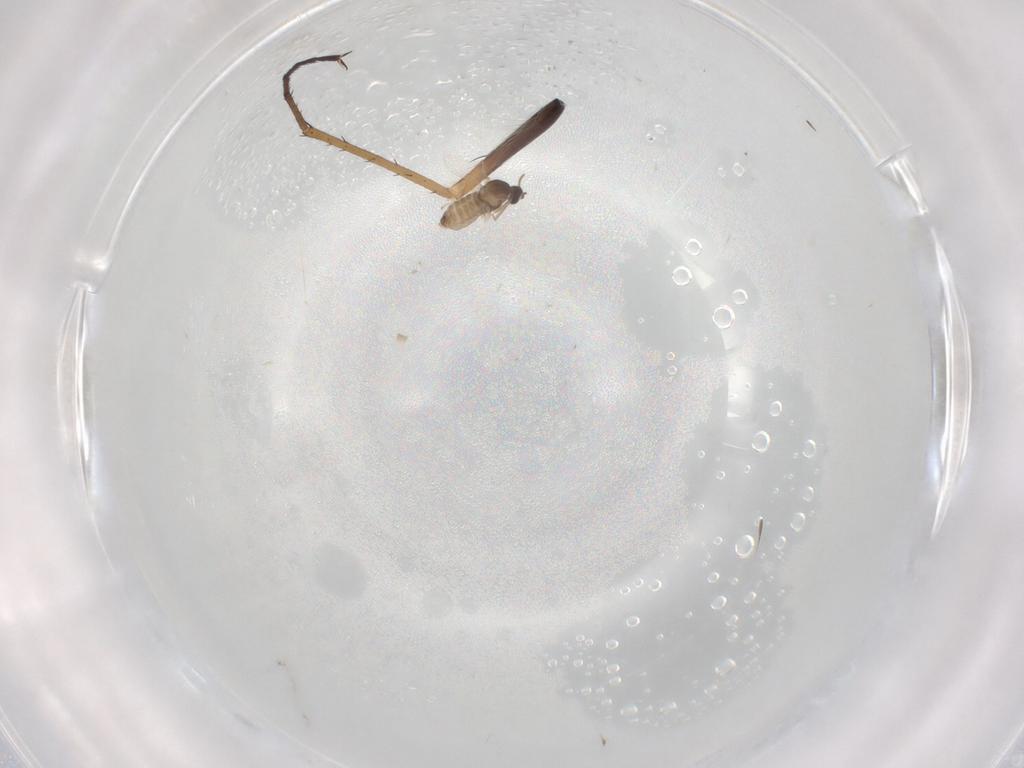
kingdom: Animalia
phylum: Arthropoda
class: Insecta
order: Diptera
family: Bombyliidae
